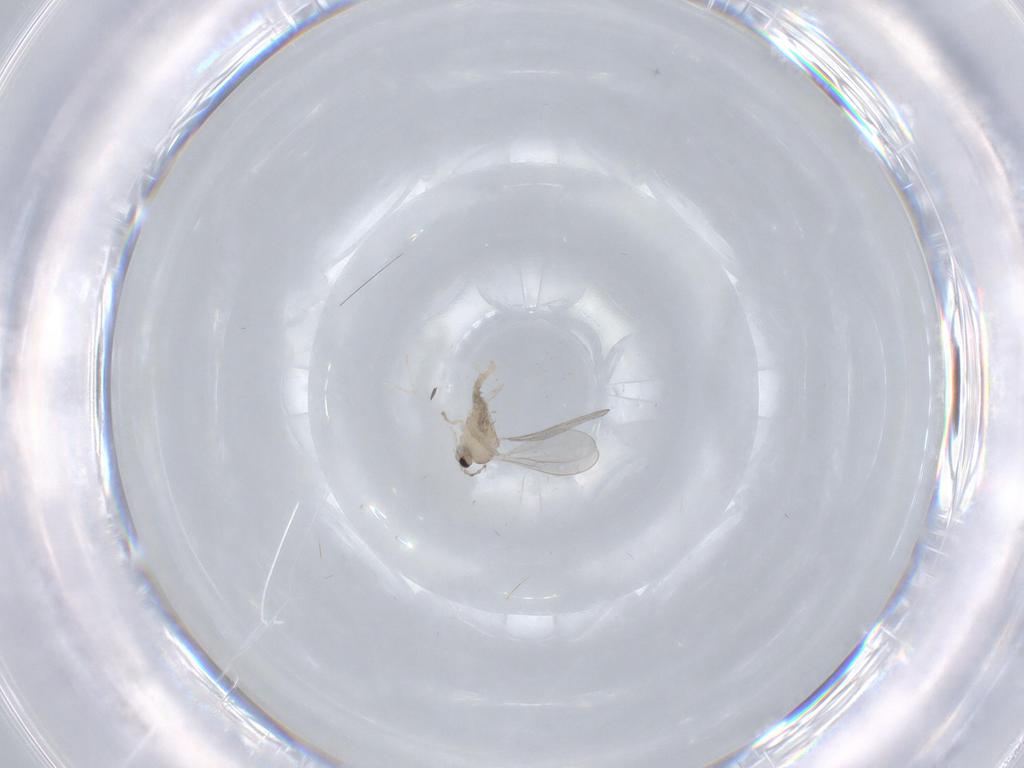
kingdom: Animalia
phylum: Arthropoda
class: Insecta
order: Diptera
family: Cecidomyiidae
